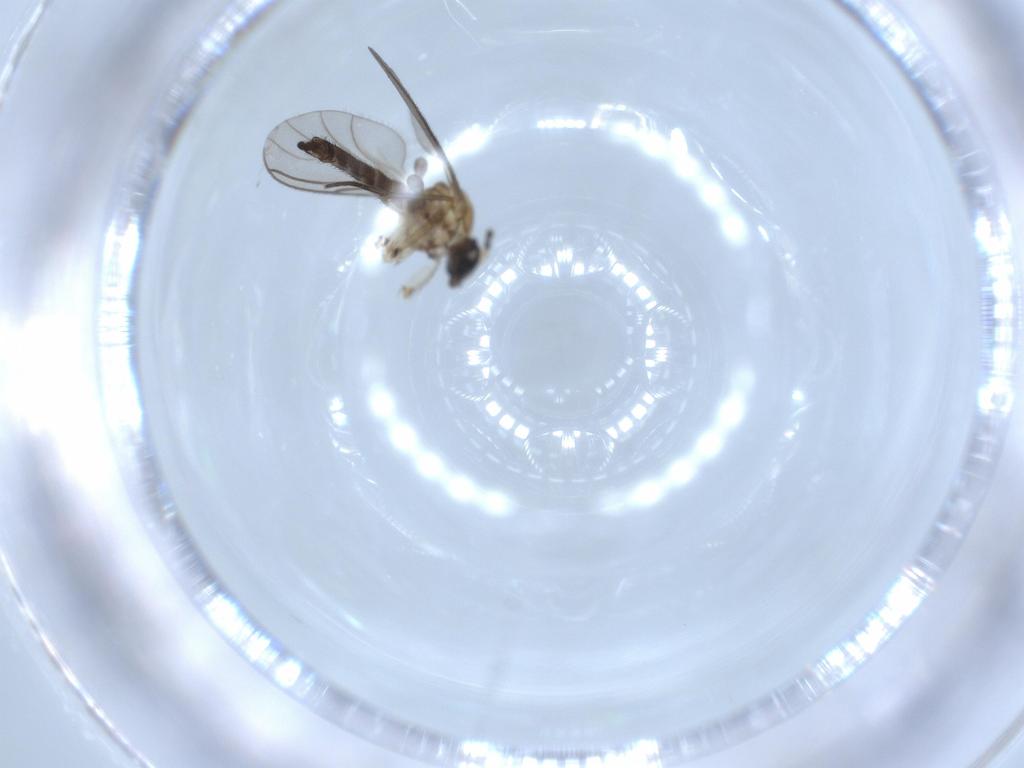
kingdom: Animalia
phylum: Arthropoda
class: Insecta
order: Diptera
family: Sciaridae
